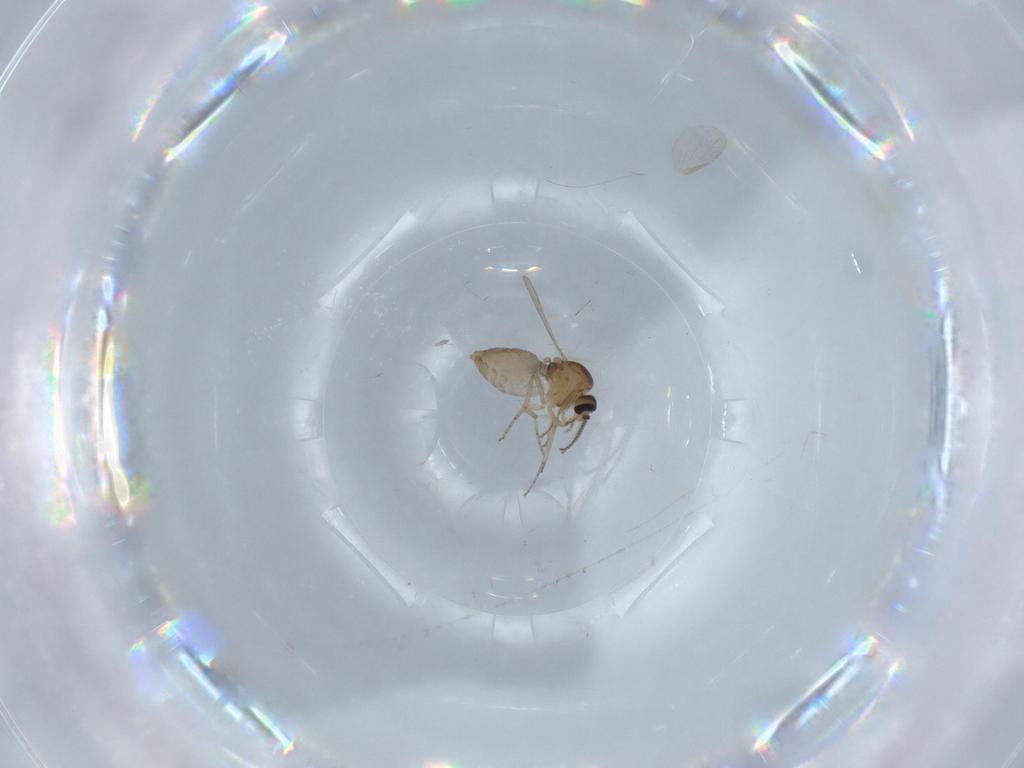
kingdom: Animalia
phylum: Arthropoda
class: Insecta
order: Diptera
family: Ceratopogonidae
